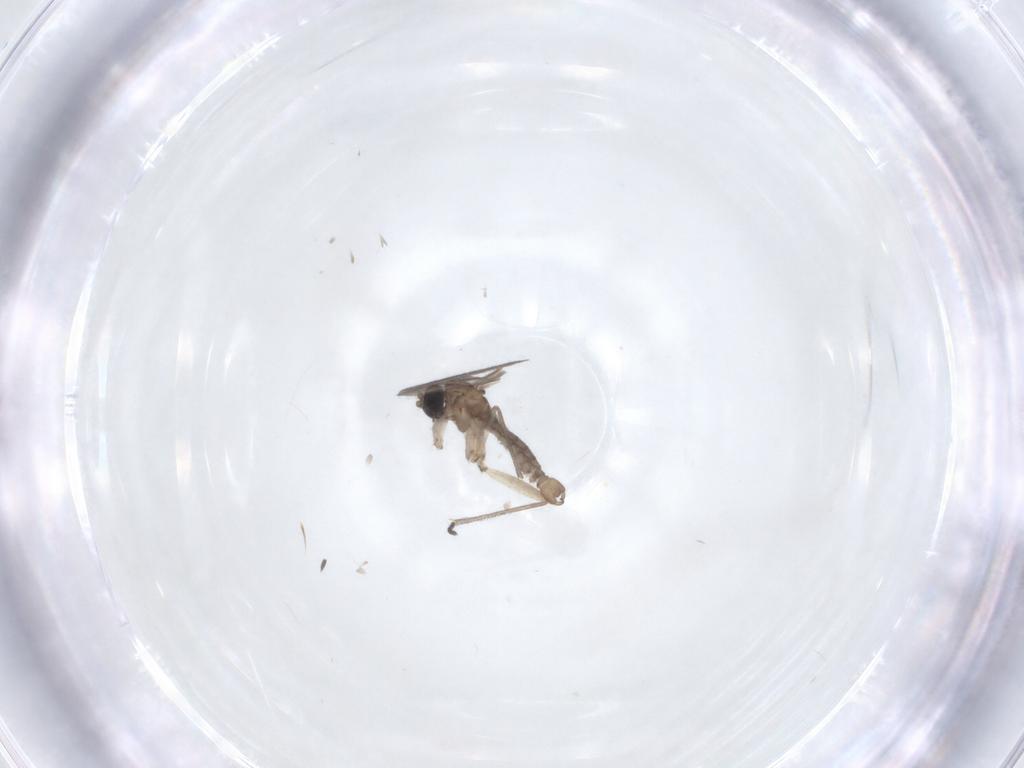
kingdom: Animalia
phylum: Arthropoda
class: Insecta
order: Diptera
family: Sciaridae
